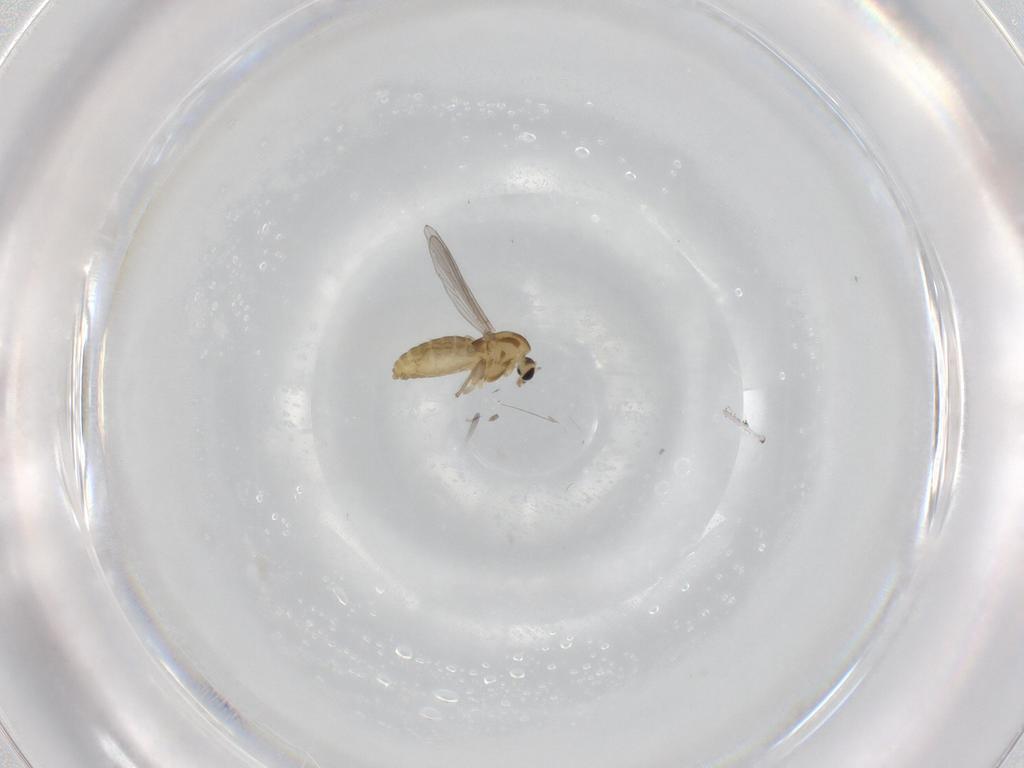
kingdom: Animalia
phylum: Arthropoda
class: Insecta
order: Diptera
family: Chironomidae
